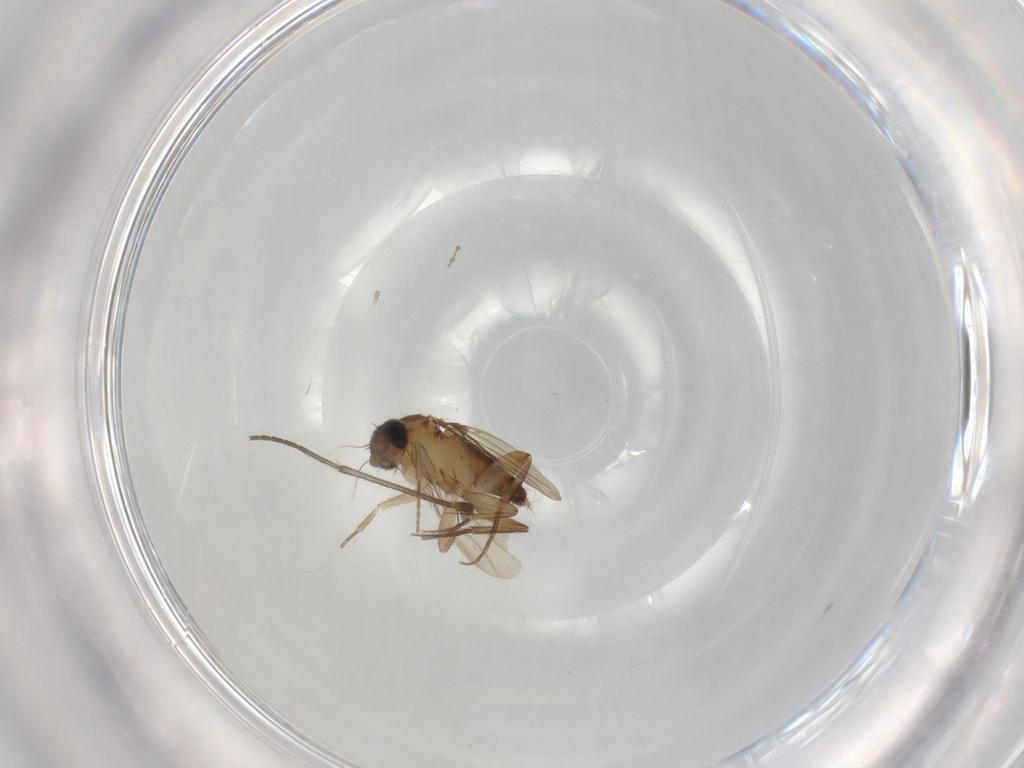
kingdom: Animalia
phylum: Arthropoda
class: Insecta
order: Diptera
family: Phoridae
